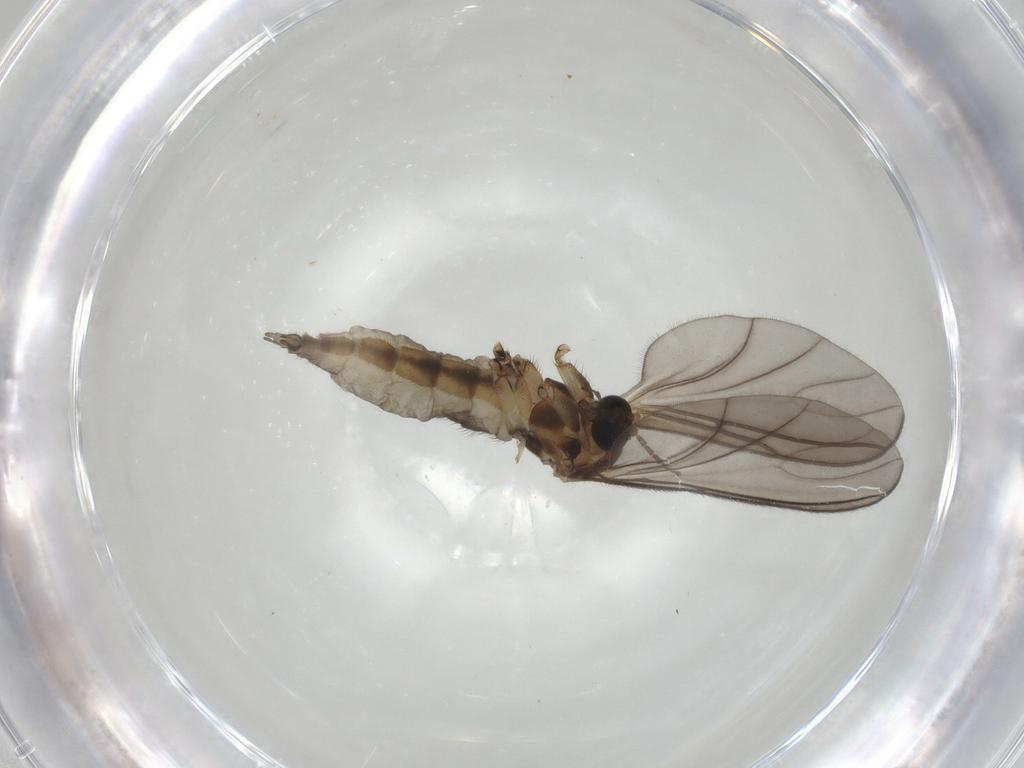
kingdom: Animalia
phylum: Arthropoda
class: Insecta
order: Diptera
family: Sciaridae
